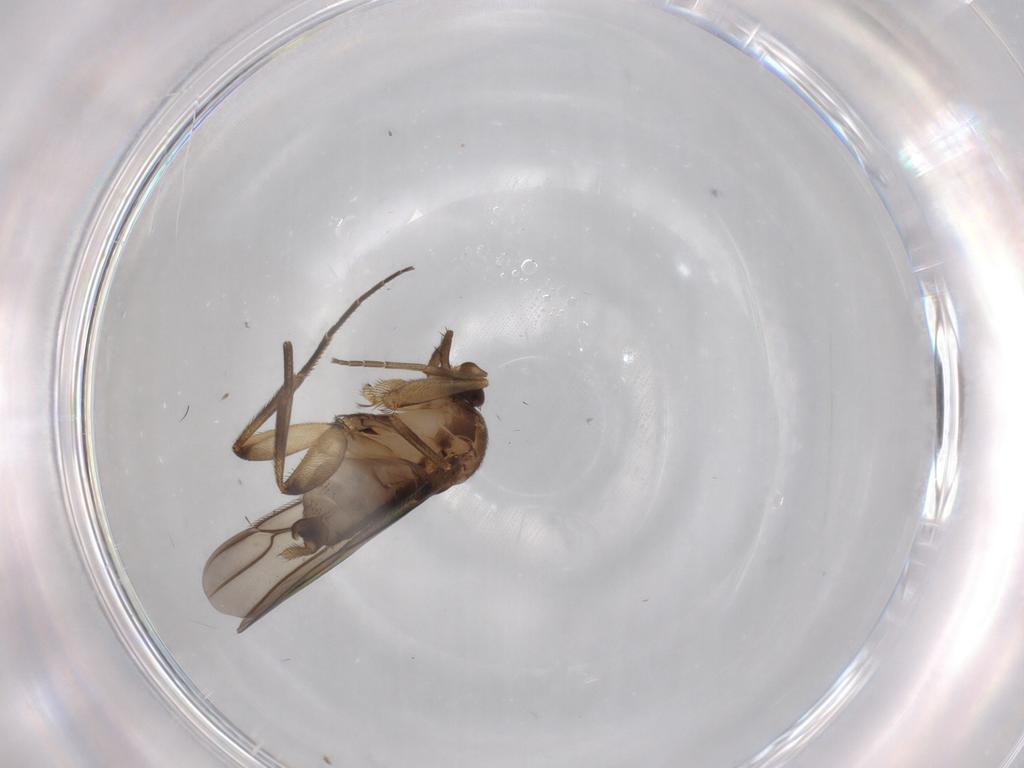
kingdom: Animalia
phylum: Arthropoda
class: Insecta
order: Diptera
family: Phoridae
